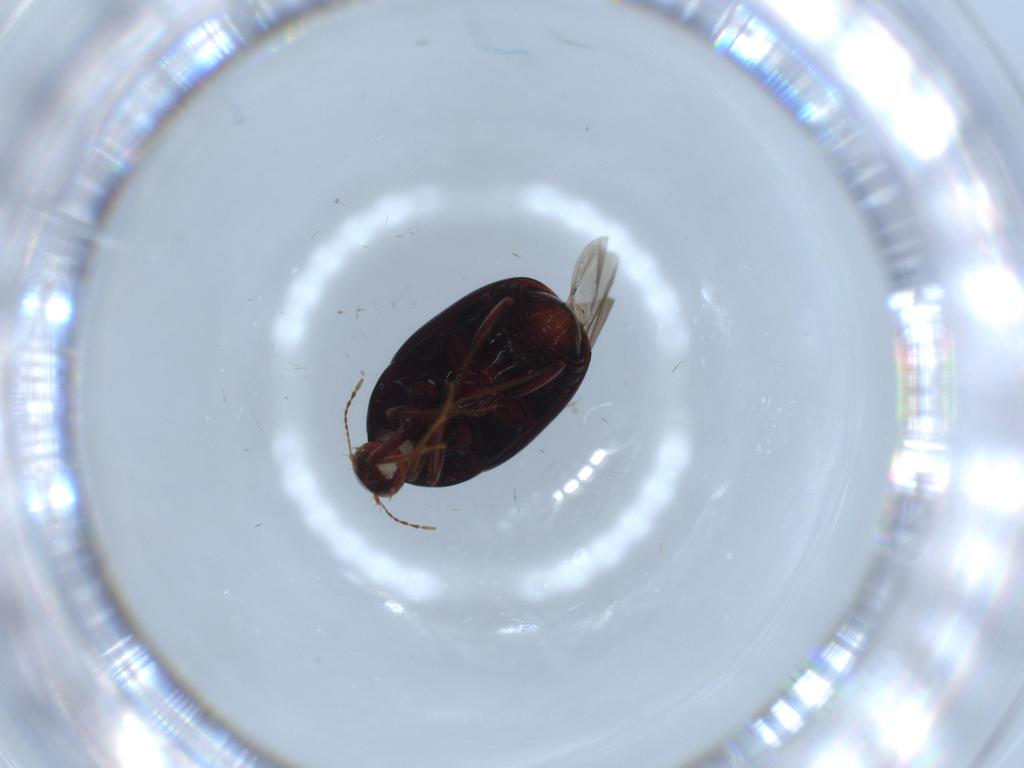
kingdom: Animalia
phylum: Arthropoda
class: Insecta
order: Coleoptera
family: Staphylinidae
